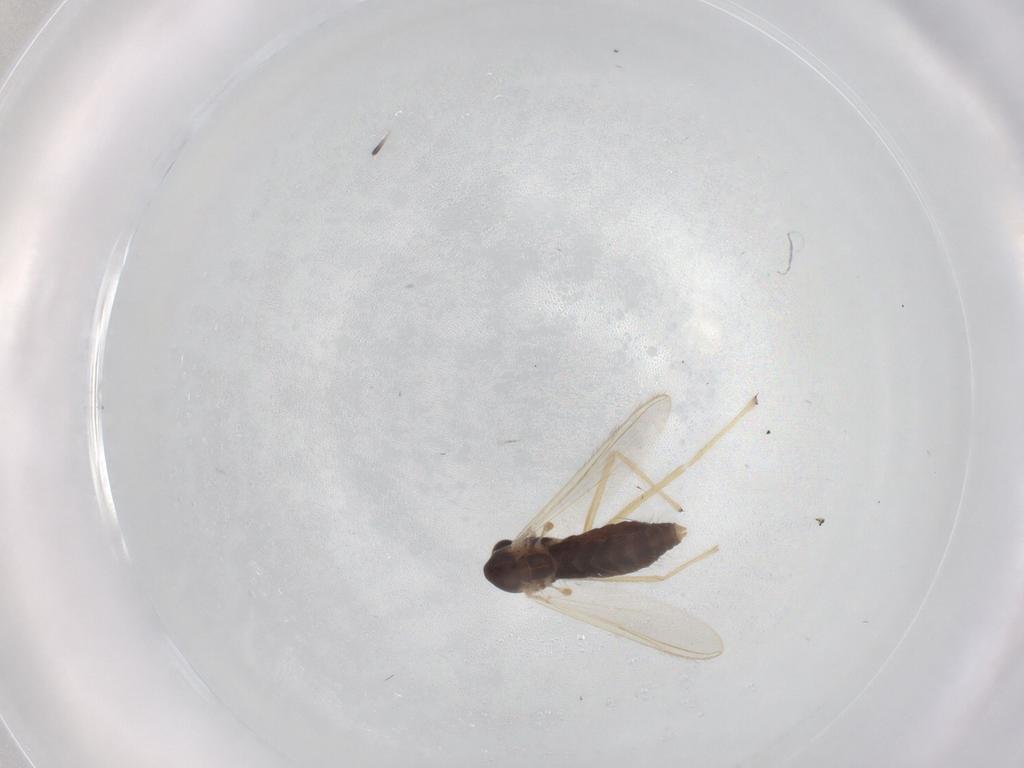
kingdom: Animalia
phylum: Arthropoda
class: Insecta
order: Diptera
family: Chironomidae
